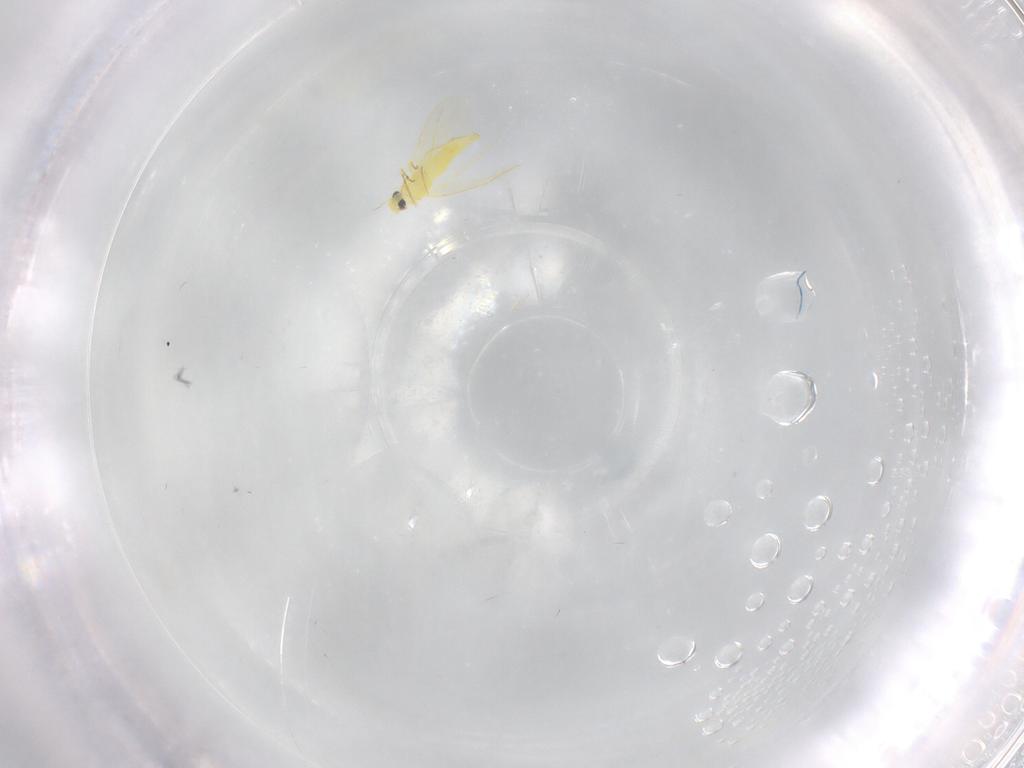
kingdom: Animalia
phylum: Arthropoda
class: Insecta
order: Hemiptera
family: Aleyrodidae
